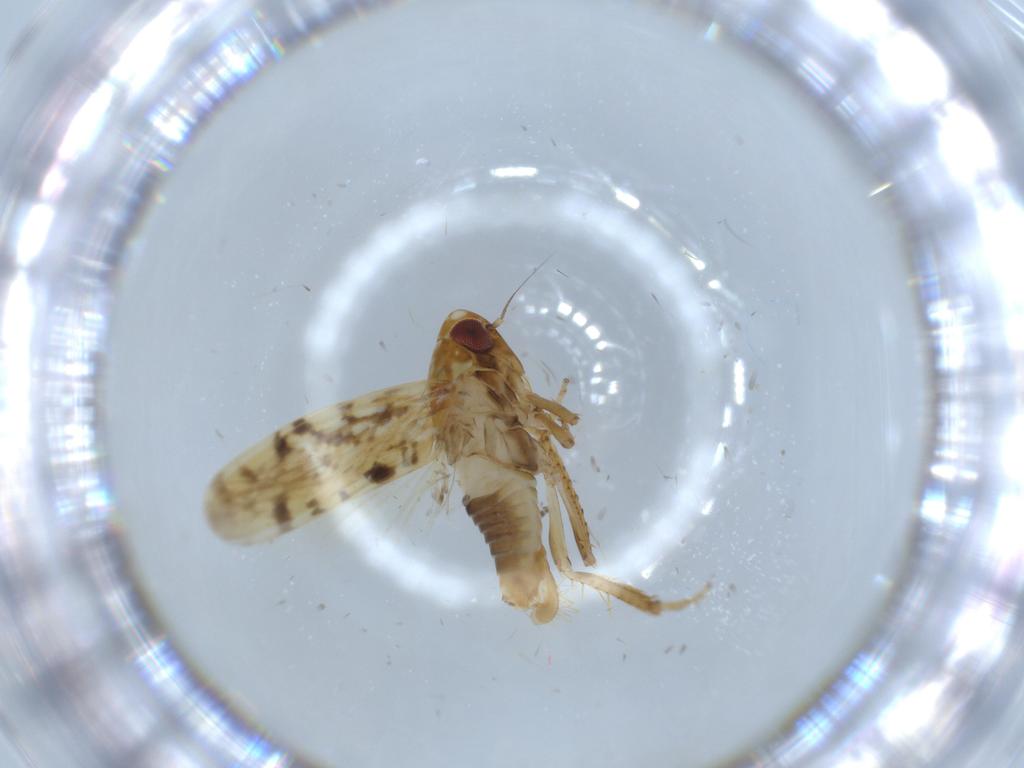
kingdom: Animalia
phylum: Arthropoda
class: Insecta
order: Hemiptera
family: Cicadellidae
